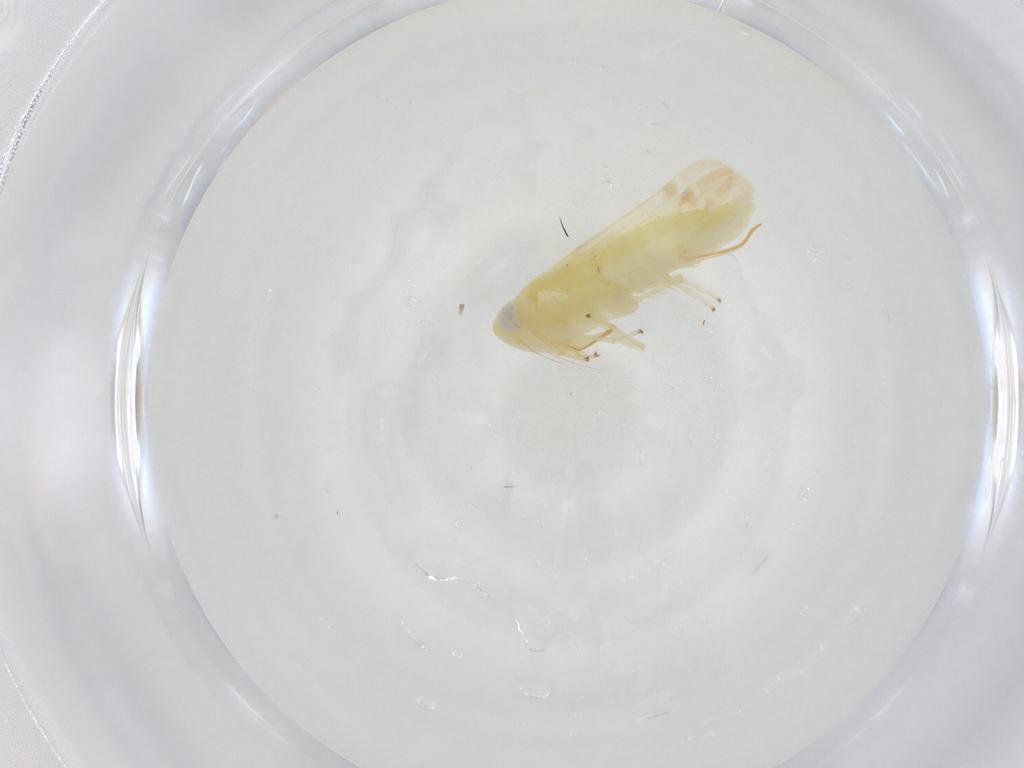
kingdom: Animalia
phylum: Arthropoda
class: Insecta
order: Hemiptera
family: Cicadellidae
